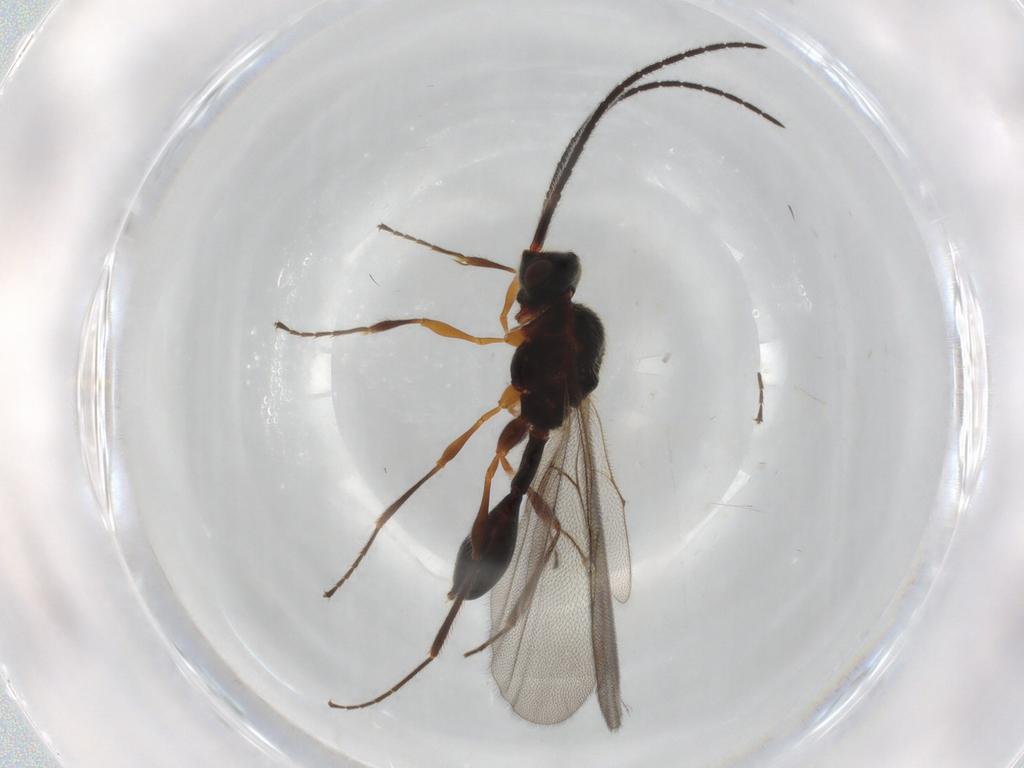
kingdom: Animalia
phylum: Arthropoda
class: Insecta
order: Hymenoptera
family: Diapriidae
